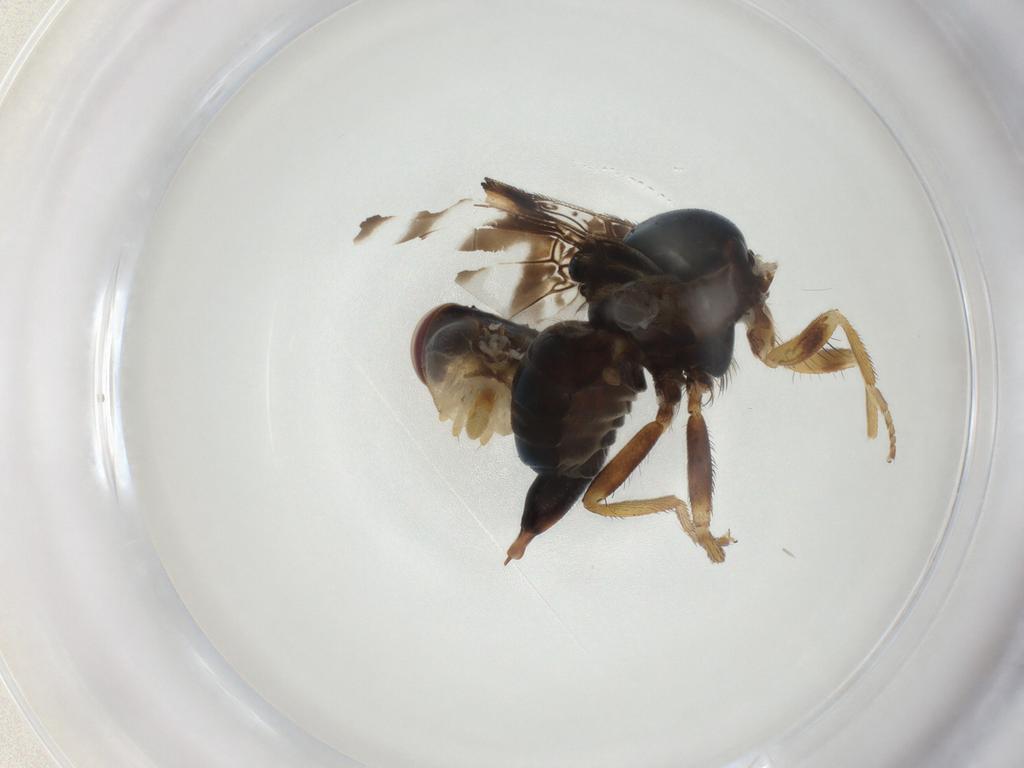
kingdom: Animalia
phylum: Arthropoda
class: Insecta
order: Diptera
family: Tephritidae
